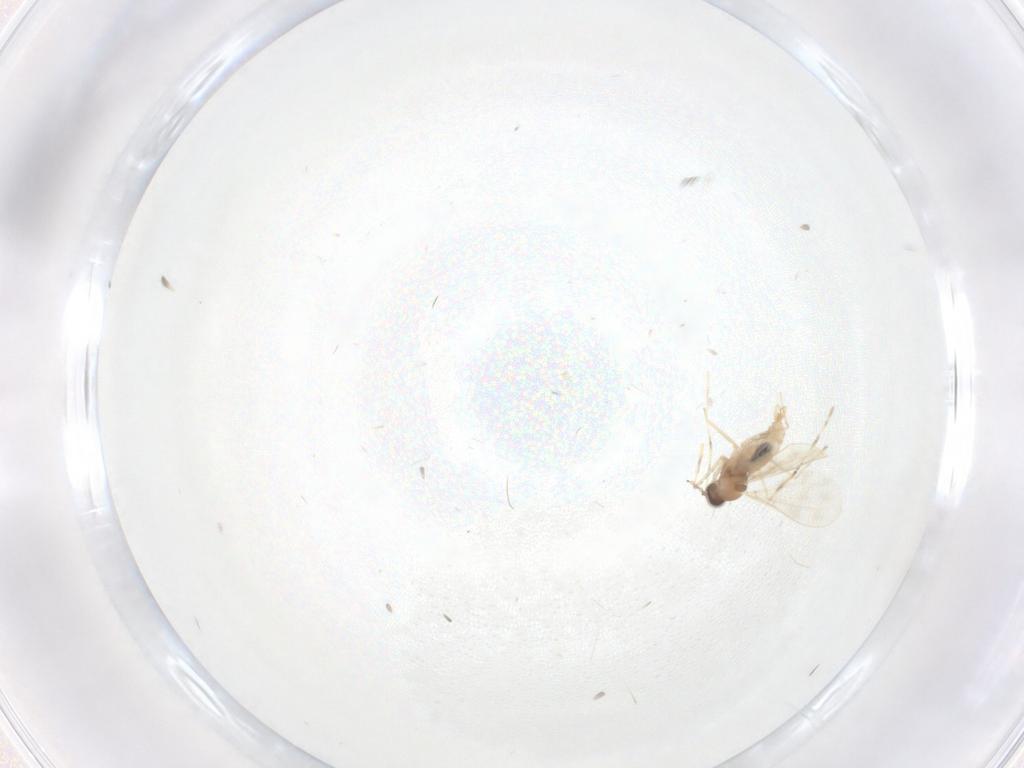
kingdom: Animalia
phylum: Arthropoda
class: Insecta
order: Diptera
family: Cecidomyiidae
